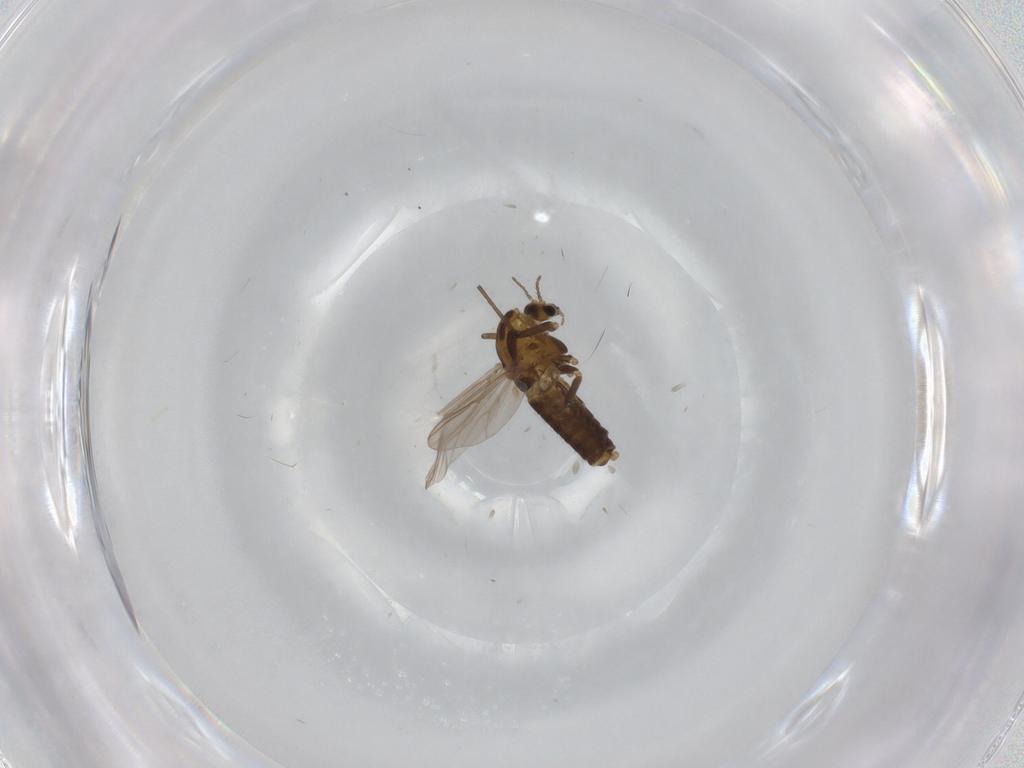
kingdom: Animalia
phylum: Arthropoda
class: Insecta
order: Diptera
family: Chironomidae
